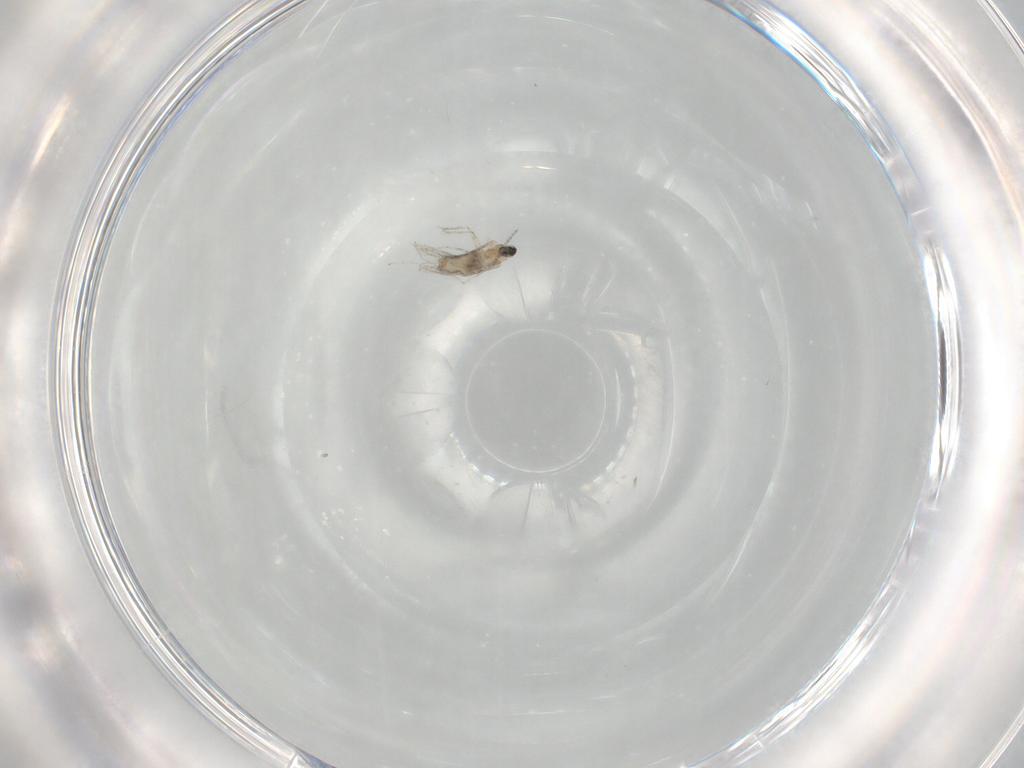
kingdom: Animalia
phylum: Arthropoda
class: Insecta
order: Diptera
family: Cecidomyiidae
